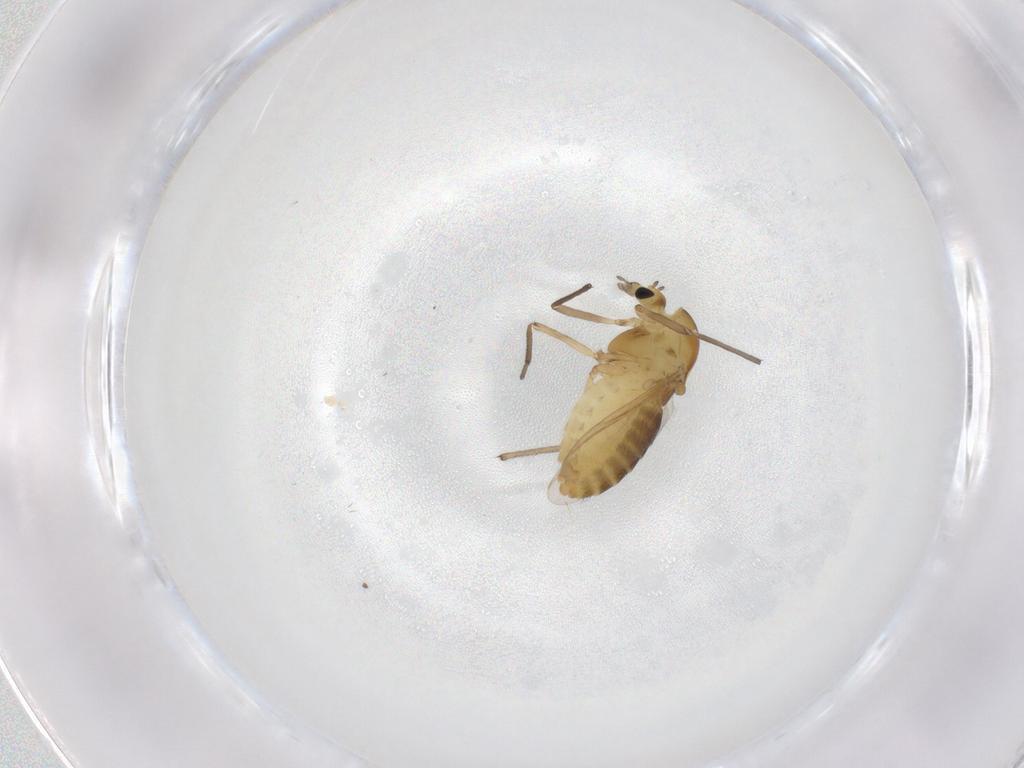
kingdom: Animalia
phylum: Arthropoda
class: Insecta
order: Diptera
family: Chironomidae
